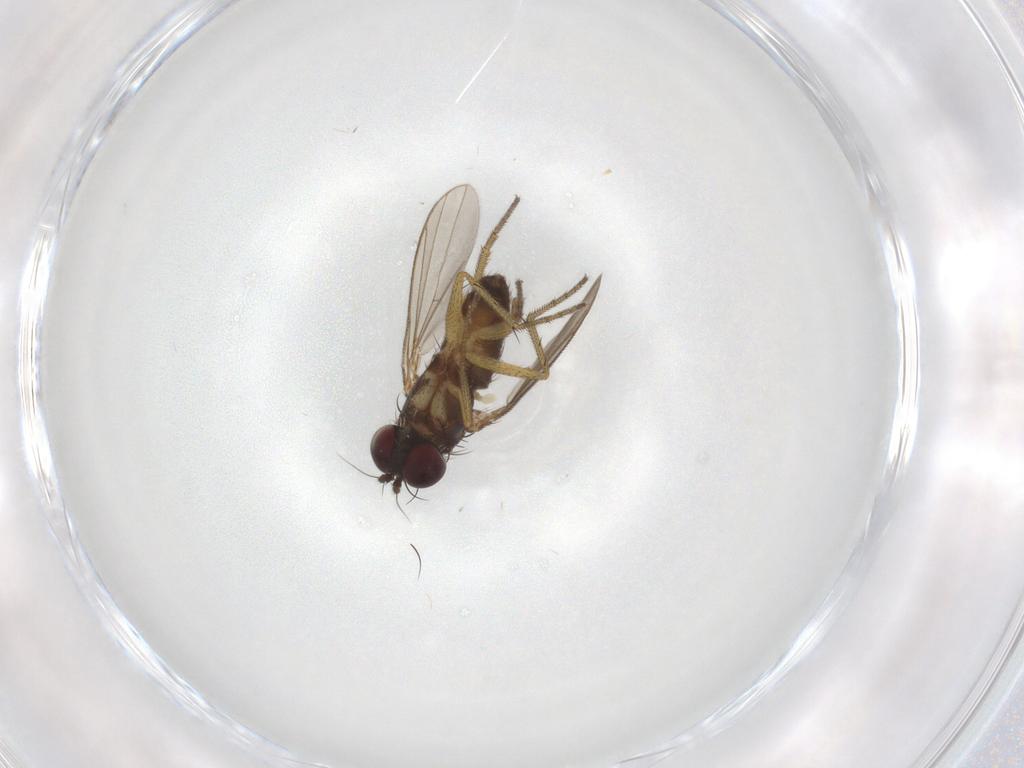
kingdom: Animalia
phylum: Arthropoda
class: Insecta
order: Diptera
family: Dolichopodidae
